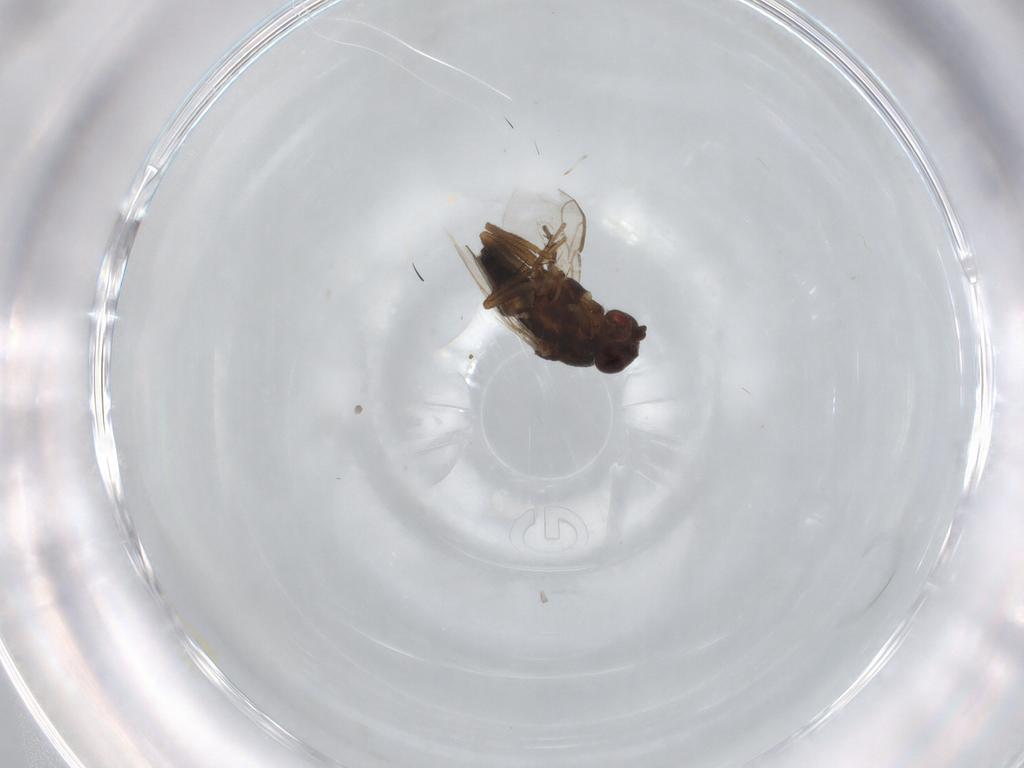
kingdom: Animalia
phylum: Arthropoda
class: Insecta
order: Diptera
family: Sphaeroceridae
